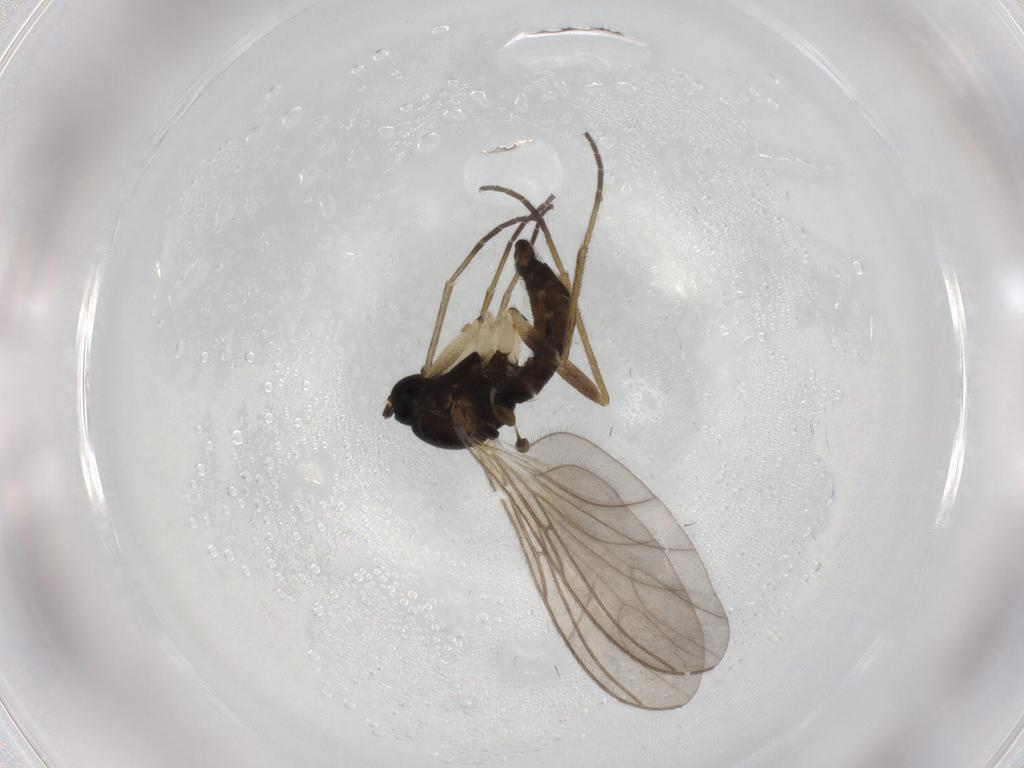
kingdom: Animalia
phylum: Arthropoda
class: Insecta
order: Diptera
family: Sciaridae
